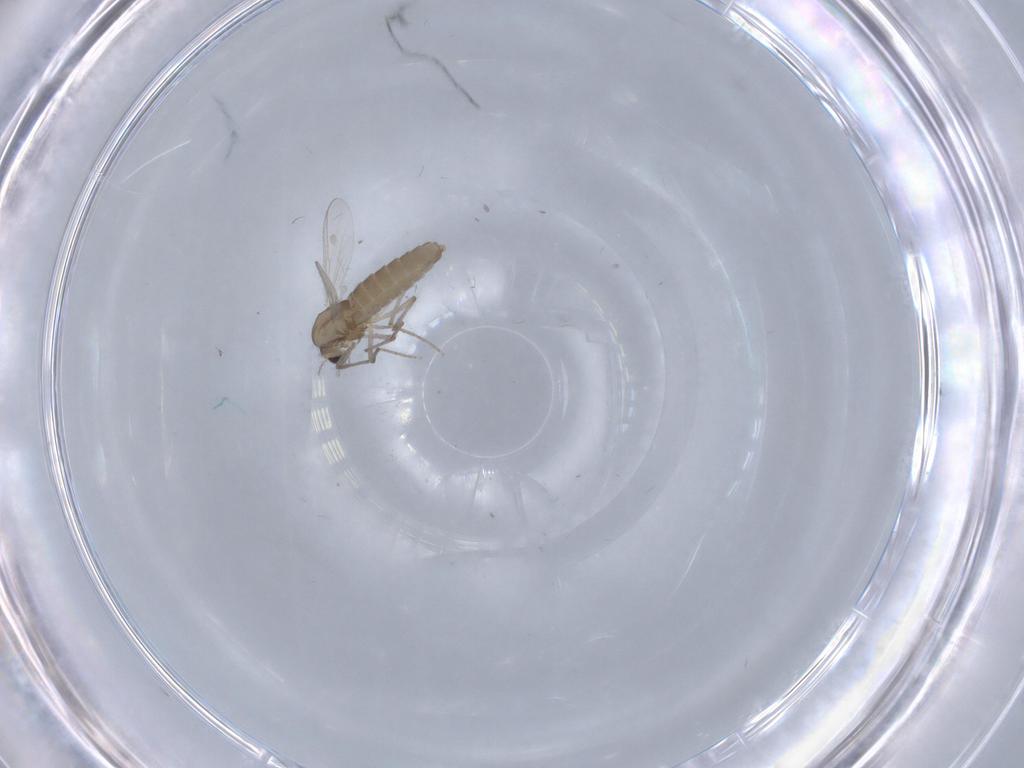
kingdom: Animalia
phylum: Arthropoda
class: Insecta
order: Diptera
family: Chironomidae
